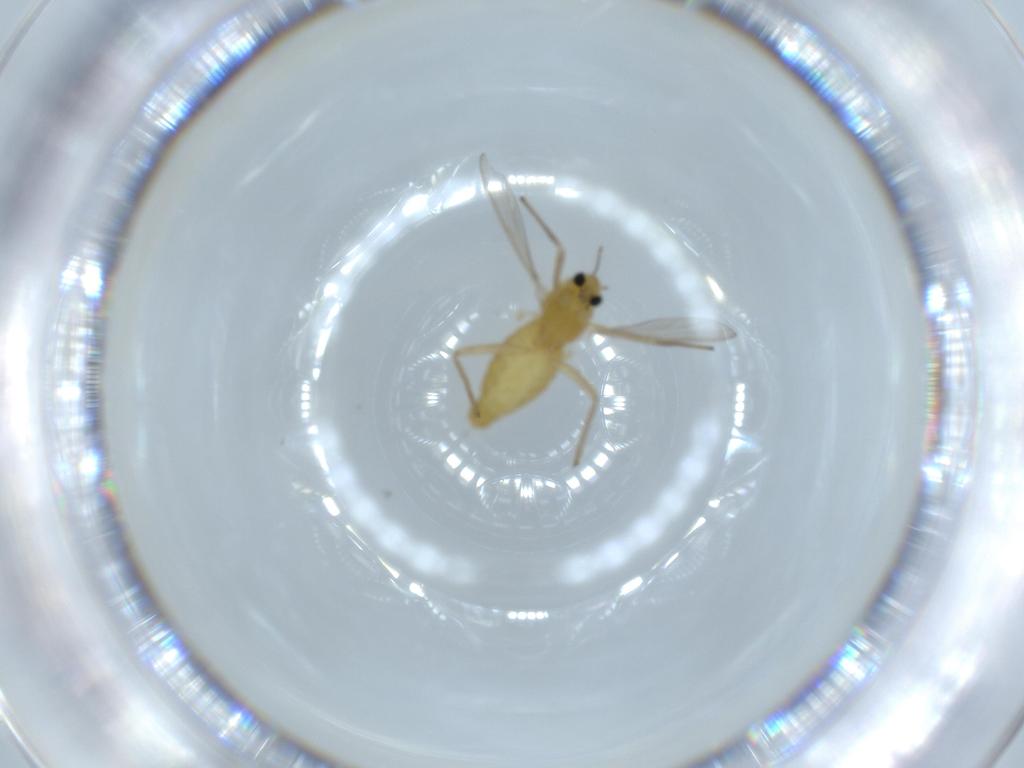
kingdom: Animalia
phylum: Arthropoda
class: Insecta
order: Diptera
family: Chironomidae
